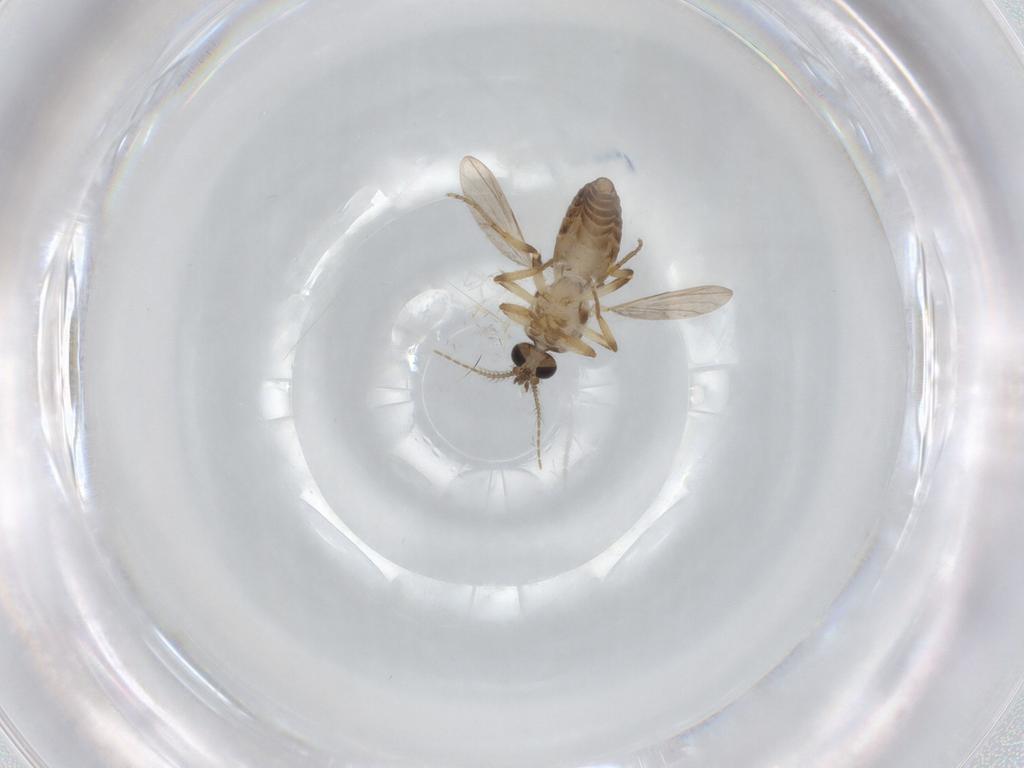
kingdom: Animalia
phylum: Arthropoda
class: Insecta
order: Diptera
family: Ceratopogonidae
